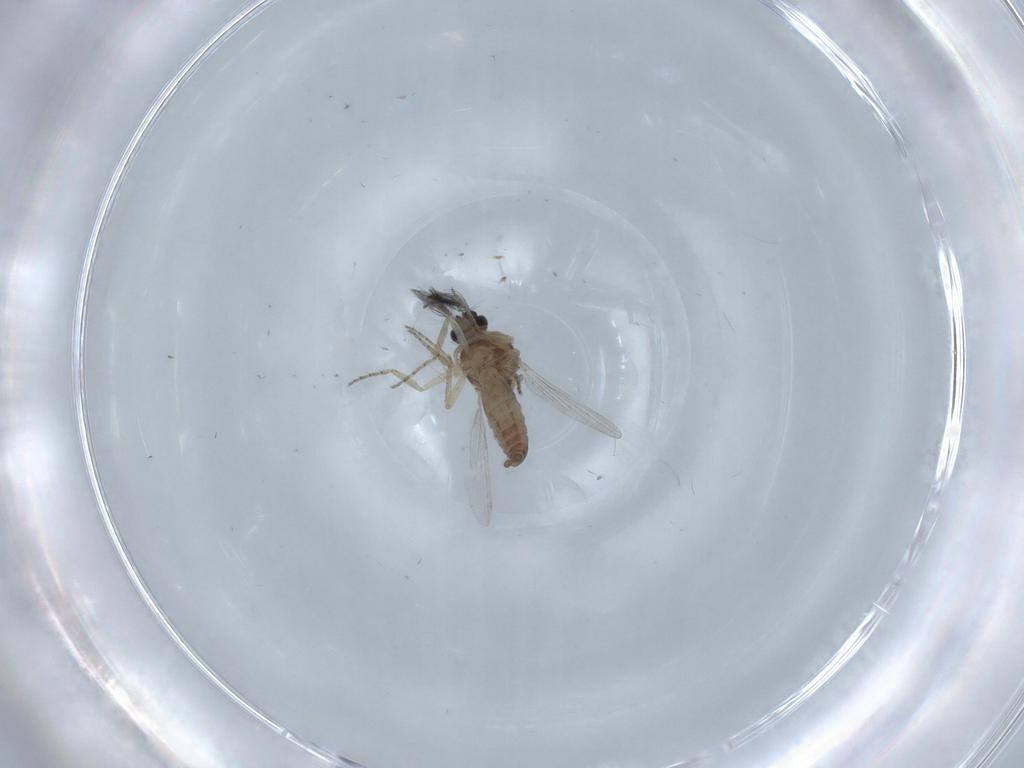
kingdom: Animalia
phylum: Arthropoda
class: Insecta
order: Diptera
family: Ceratopogonidae
